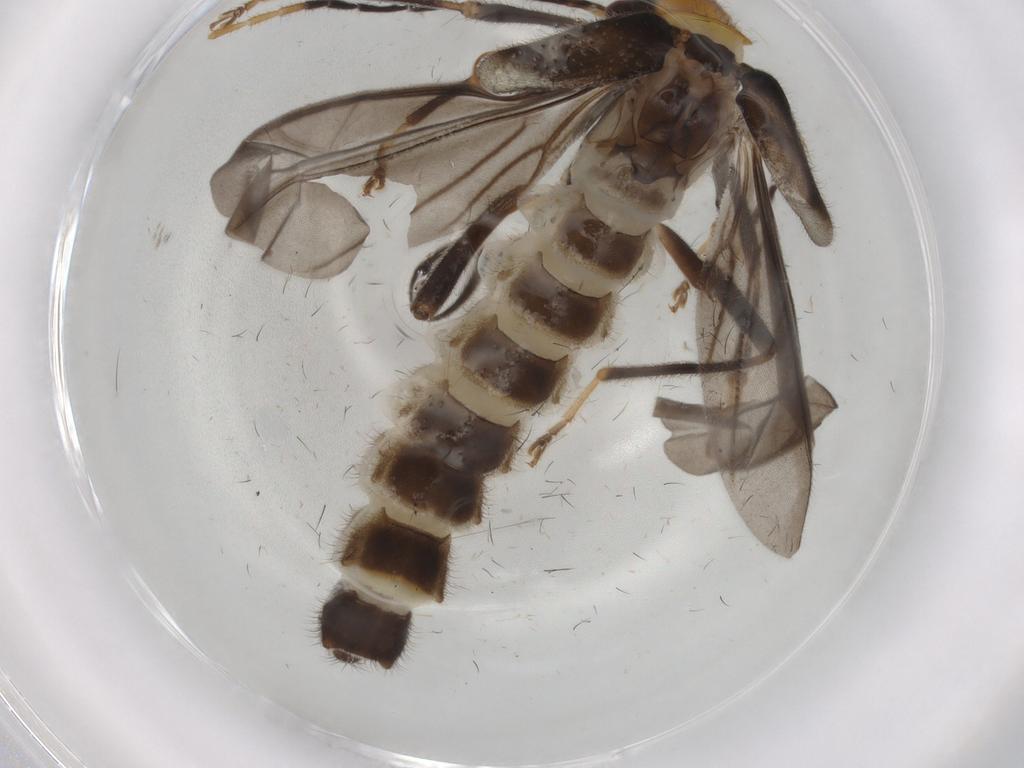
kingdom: Animalia
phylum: Arthropoda
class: Insecta
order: Coleoptera
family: Cantharidae
